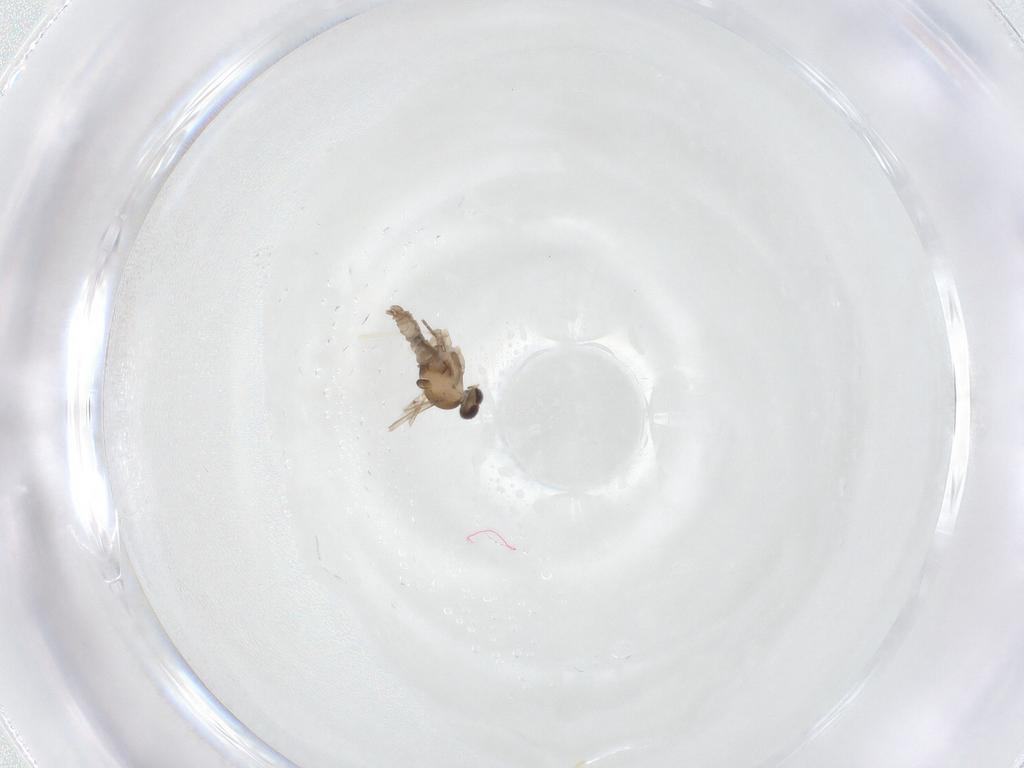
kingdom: Animalia
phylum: Arthropoda
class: Insecta
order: Diptera
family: Cecidomyiidae
